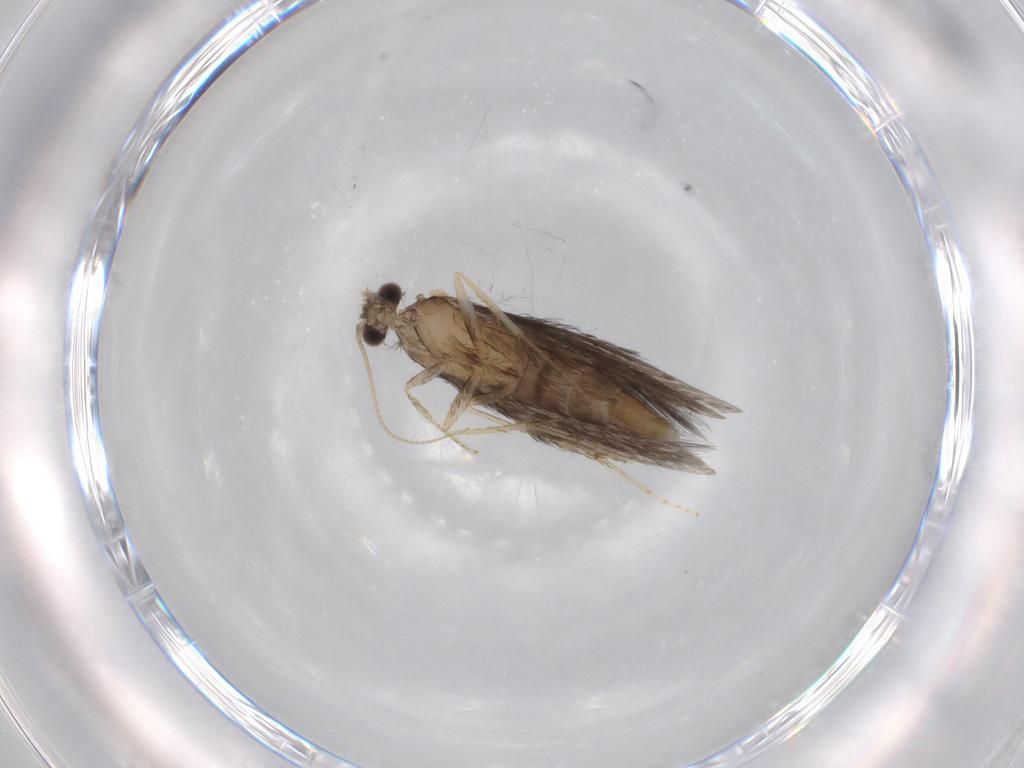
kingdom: Animalia
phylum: Arthropoda
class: Insecta
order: Trichoptera
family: Hydroptilidae
